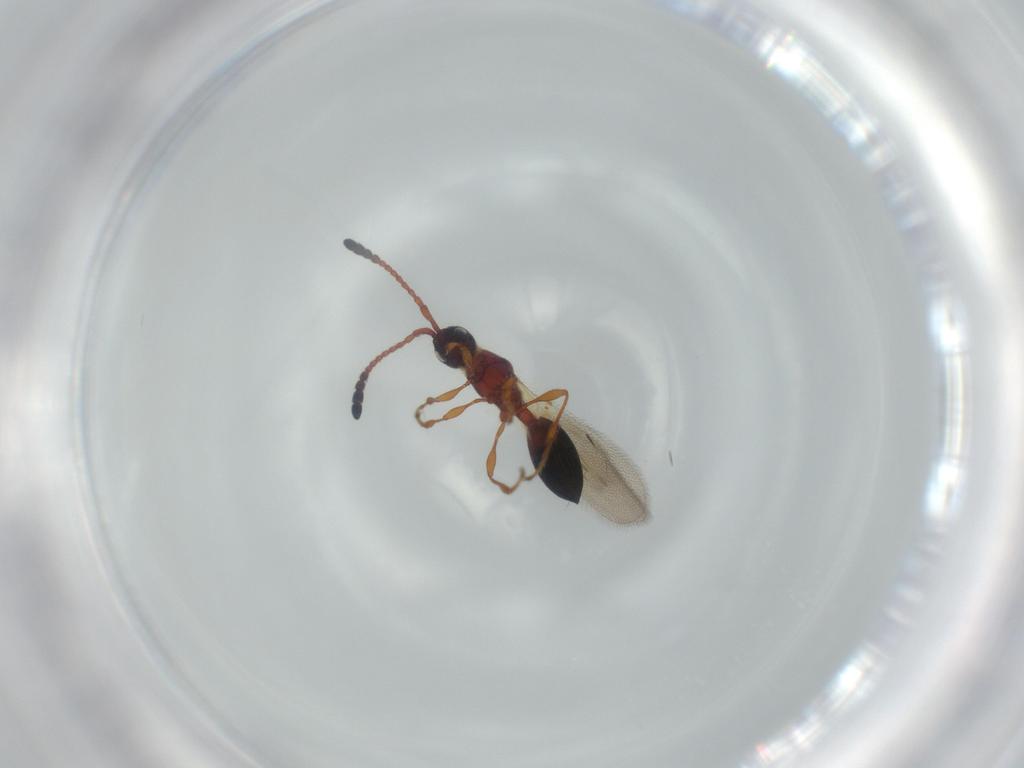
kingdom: Animalia
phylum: Arthropoda
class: Insecta
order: Hymenoptera
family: Diapriidae
